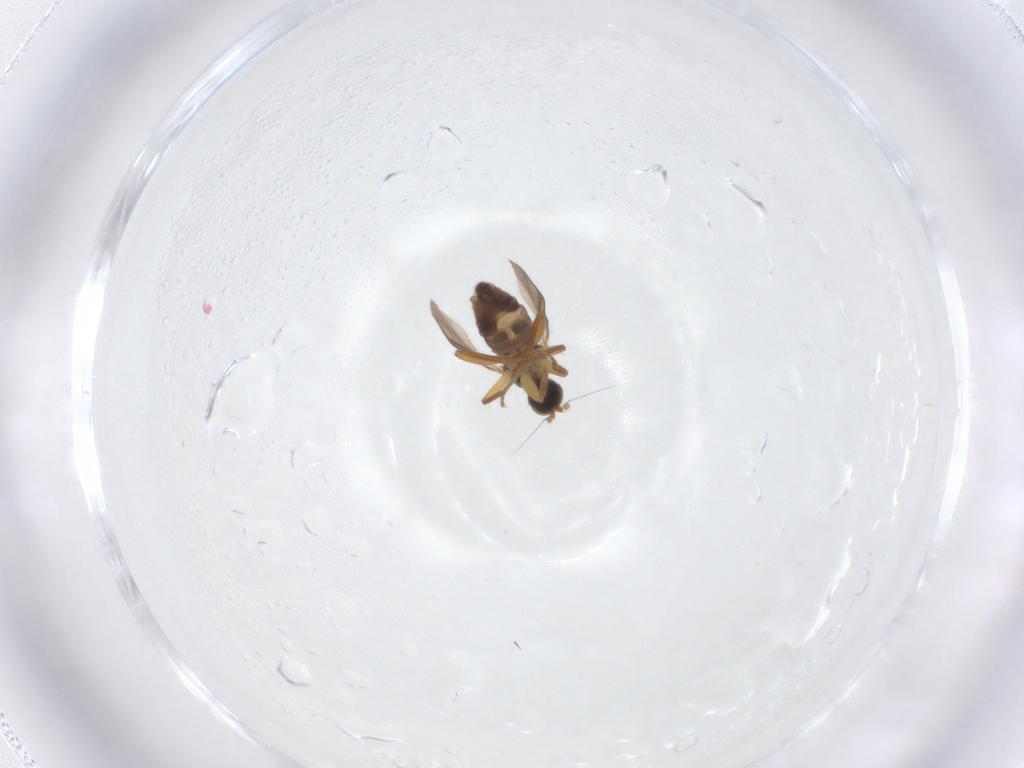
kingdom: Animalia
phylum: Arthropoda
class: Insecta
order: Diptera
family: Hybotidae
